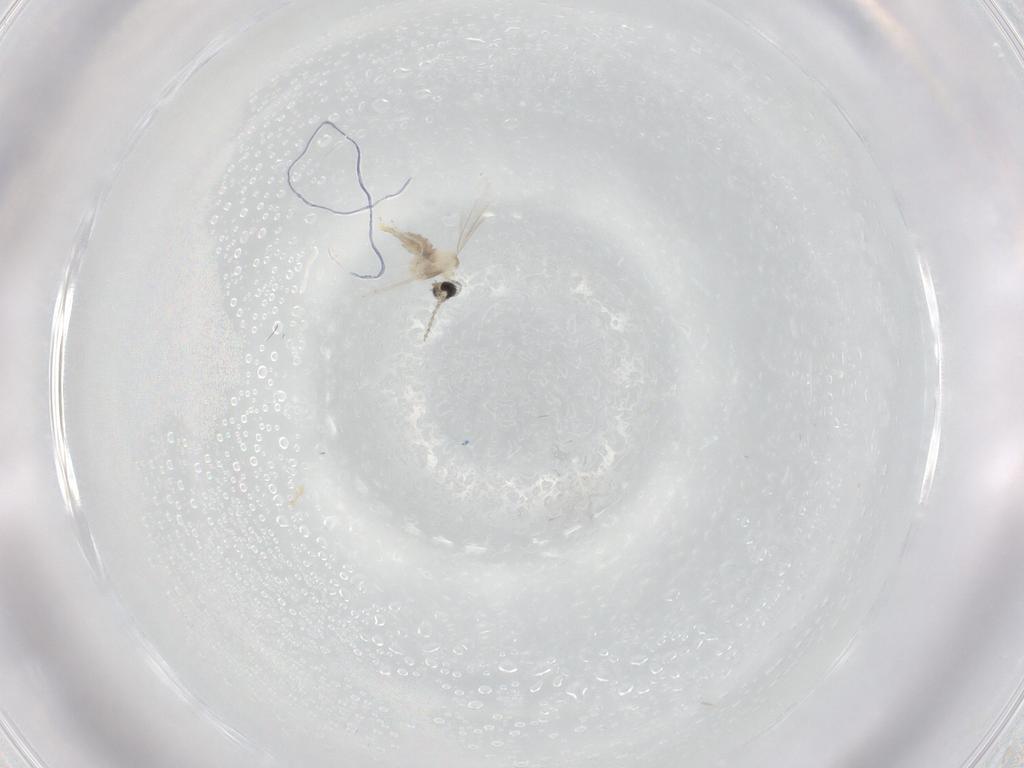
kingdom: Animalia
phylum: Arthropoda
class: Insecta
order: Diptera
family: Cecidomyiidae
